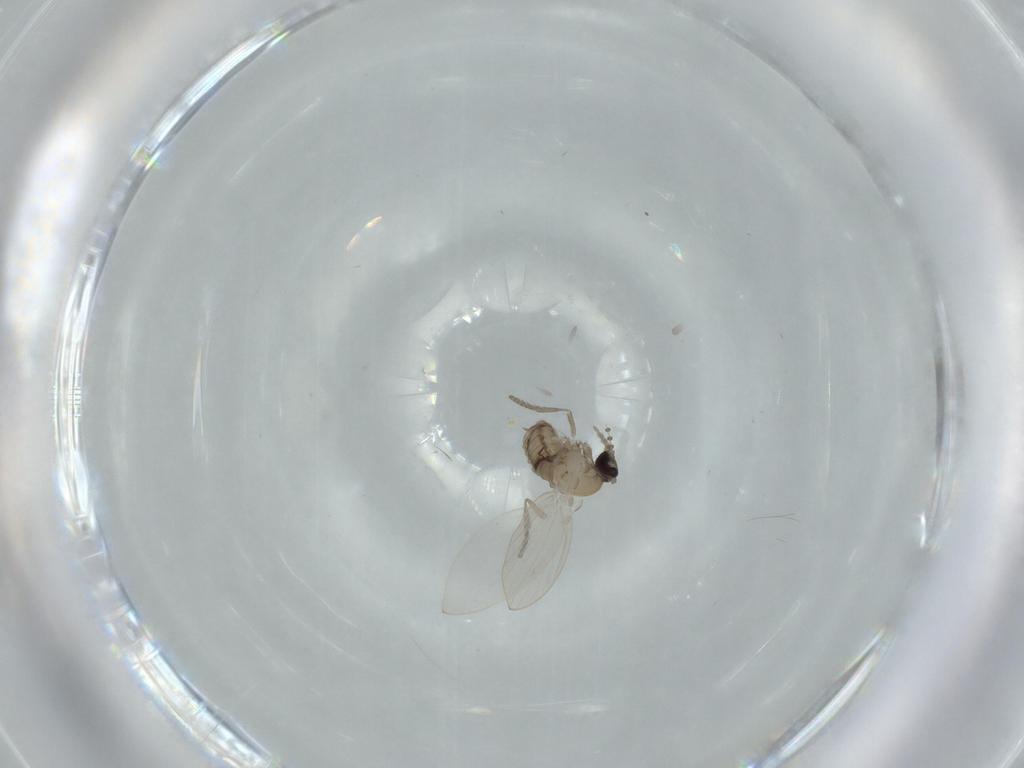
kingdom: Animalia
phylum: Arthropoda
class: Insecta
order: Diptera
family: Psychodidae
